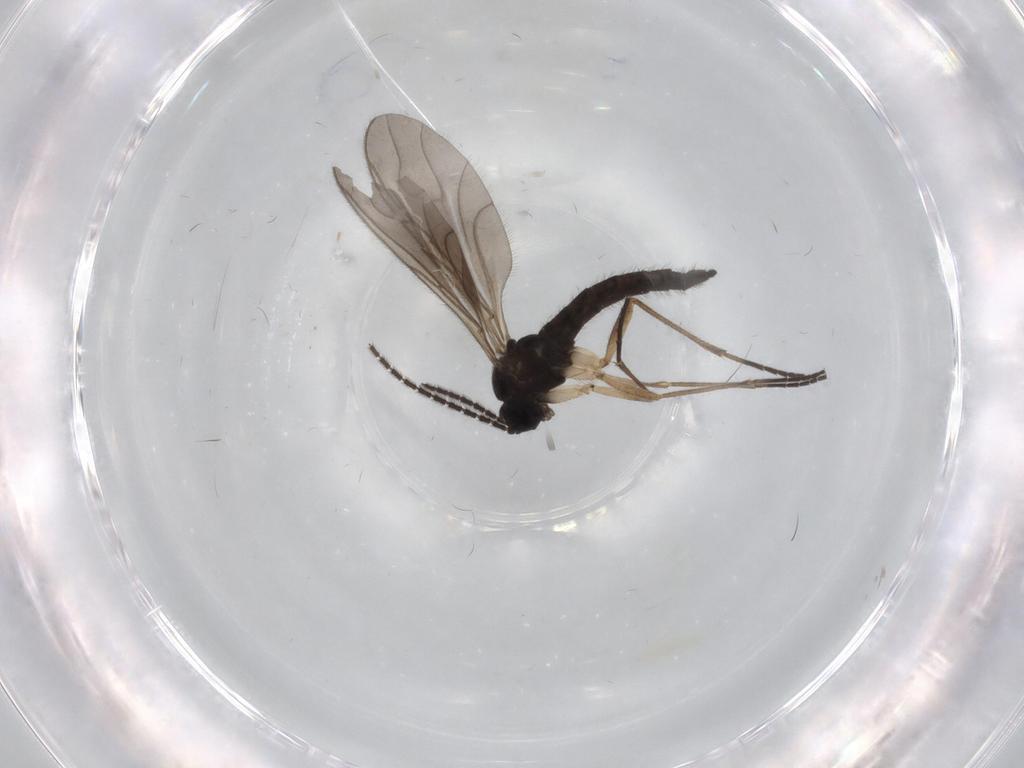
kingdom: Animalia
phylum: Arthropoda
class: Insecta
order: Diptera
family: Sciaridae
